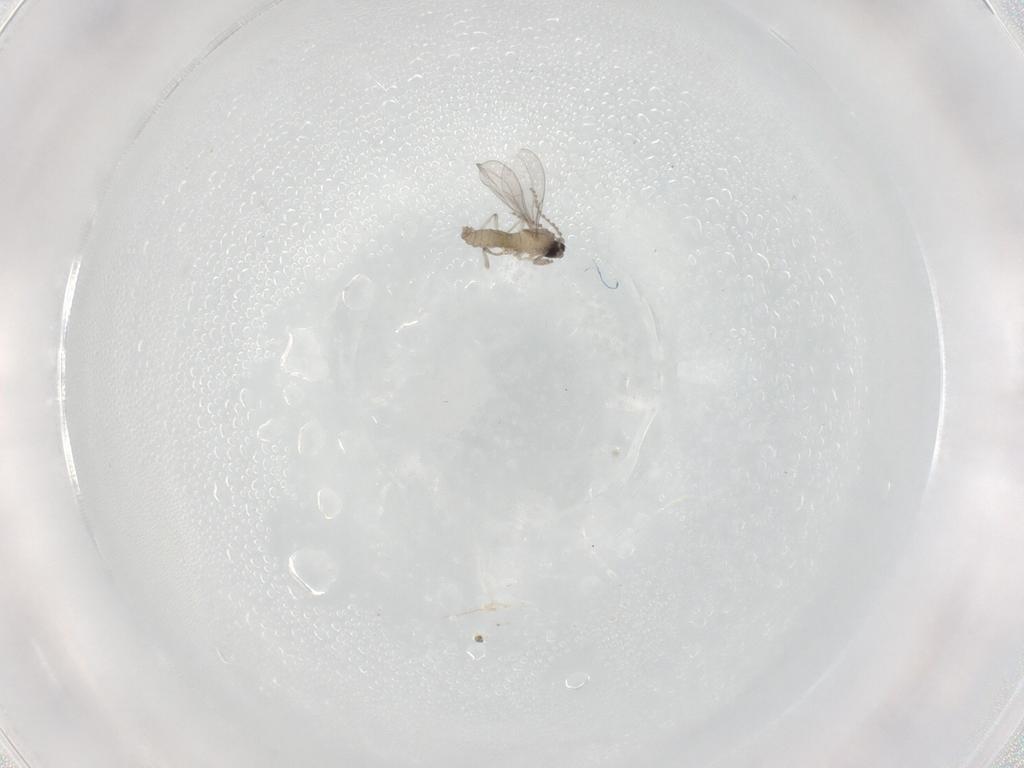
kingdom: Animalia
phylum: Arthropoda
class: Insecta
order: Diptera
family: Cecidomyiidae
